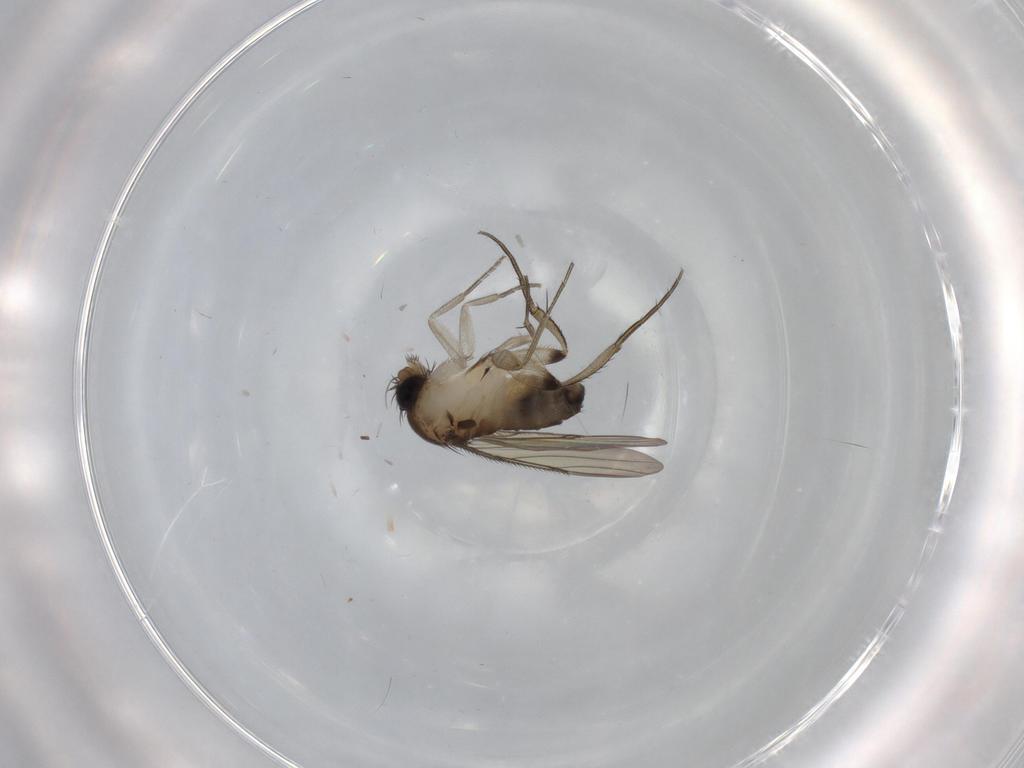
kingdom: Animalia
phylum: Arthropoda
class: Insecta
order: Diptera
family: Phoridae
